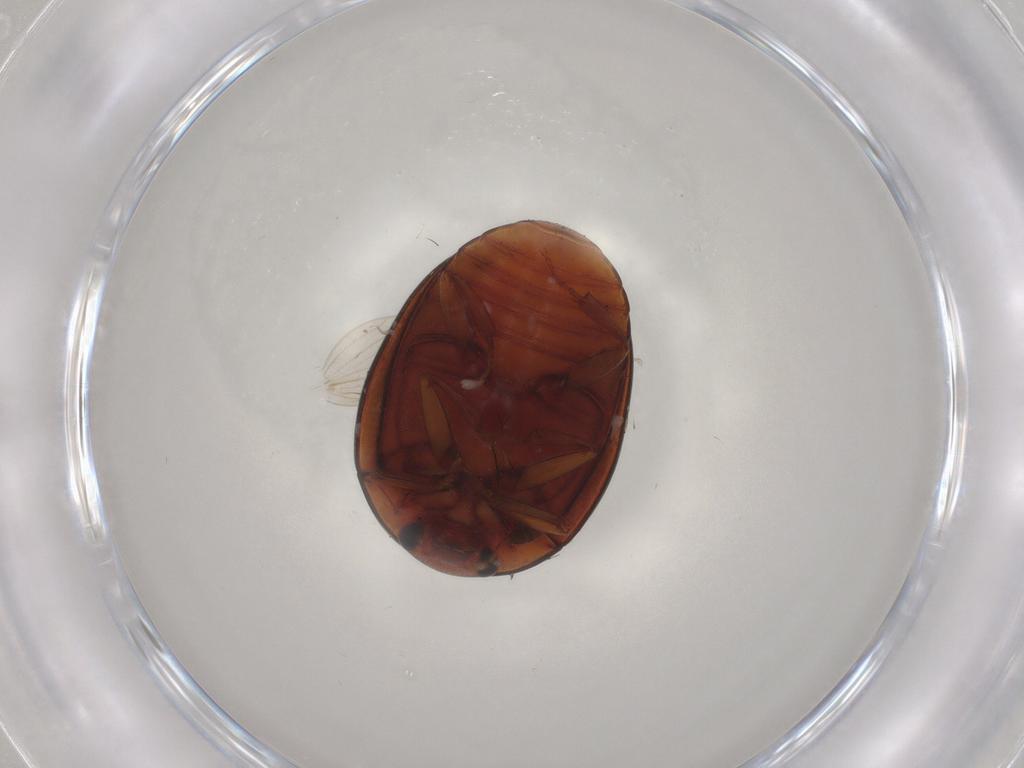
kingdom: Animalia
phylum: Arthropoda
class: Insecta
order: Coleoptera
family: Nitidulidae
